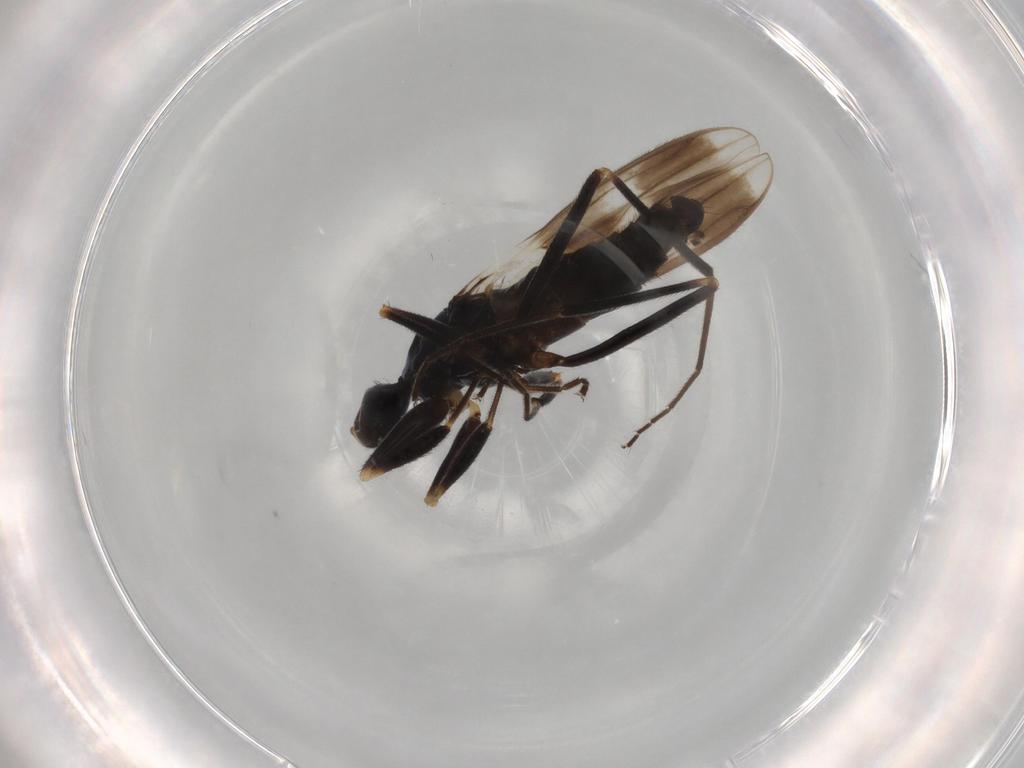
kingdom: Animalia
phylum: Arthropoda
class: Insecta
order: Diptera
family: Hybotidae
